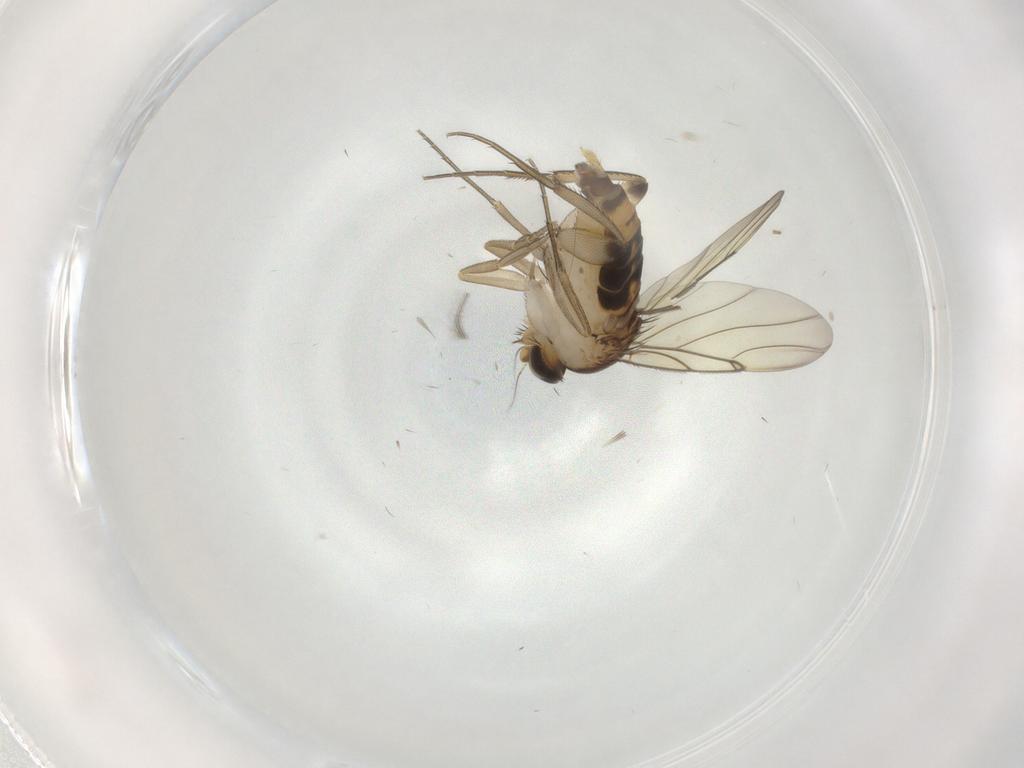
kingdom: Animalia
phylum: Arthropoda
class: Insecta
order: Diptera
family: Phoridae
